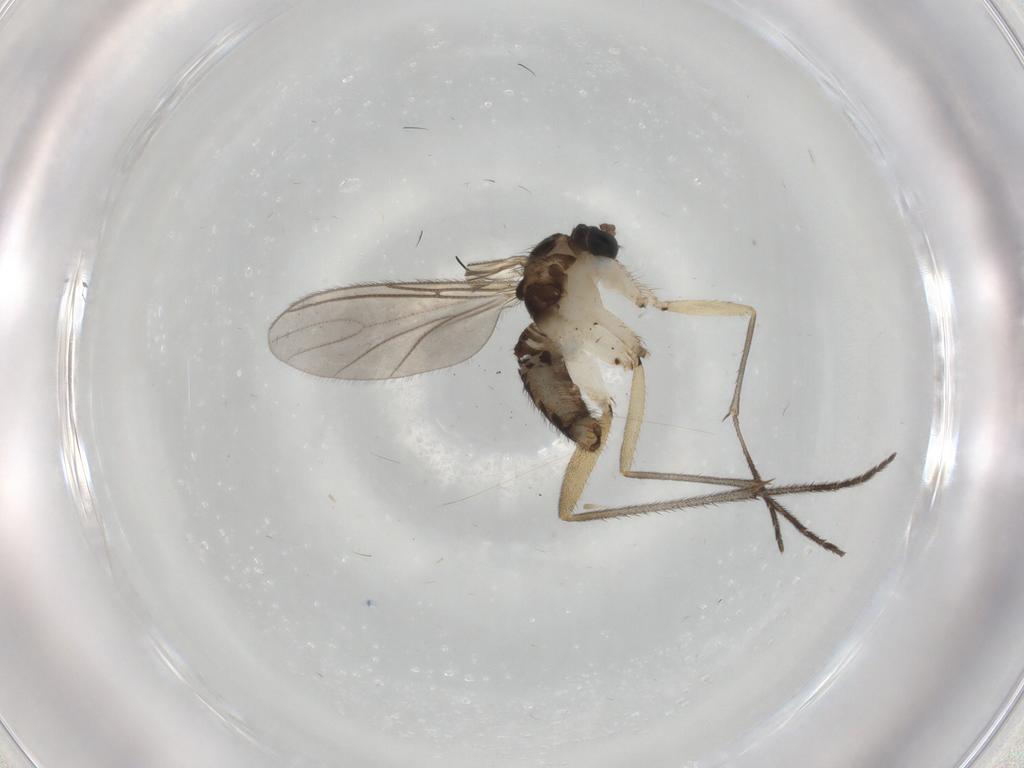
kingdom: Animalia
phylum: Arthropoda
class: Insecta
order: Diptera
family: Sciaridae
